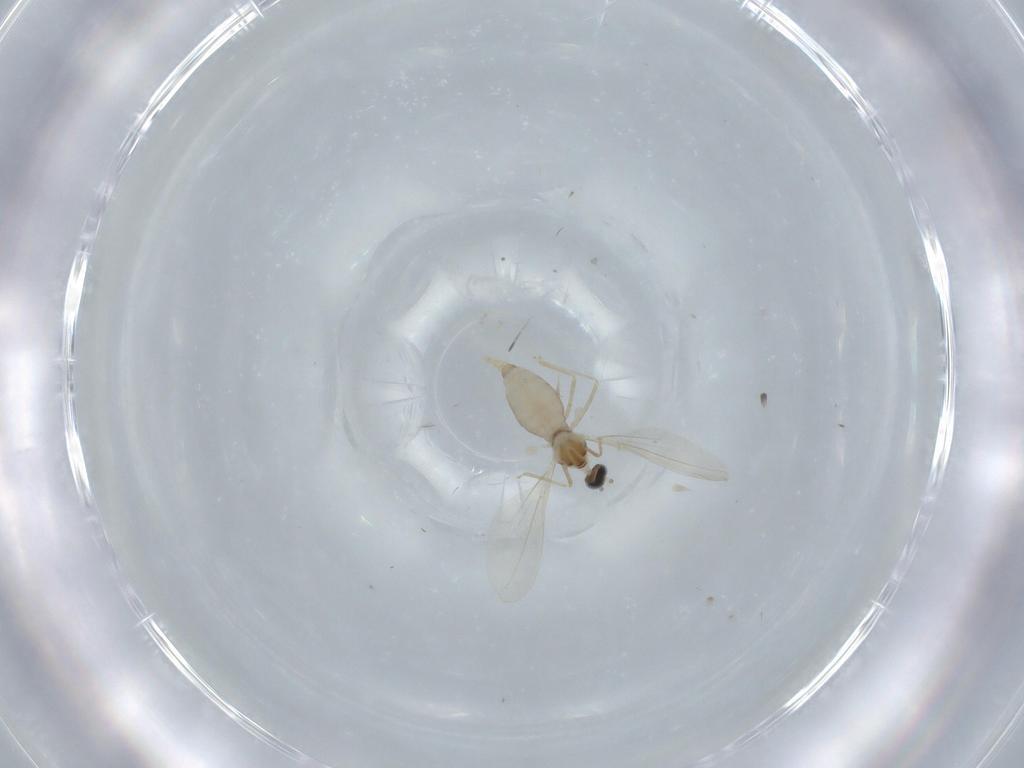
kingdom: Animalia
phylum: Arthropoda
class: Insecta
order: Diptera
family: Cecidomyiidae
